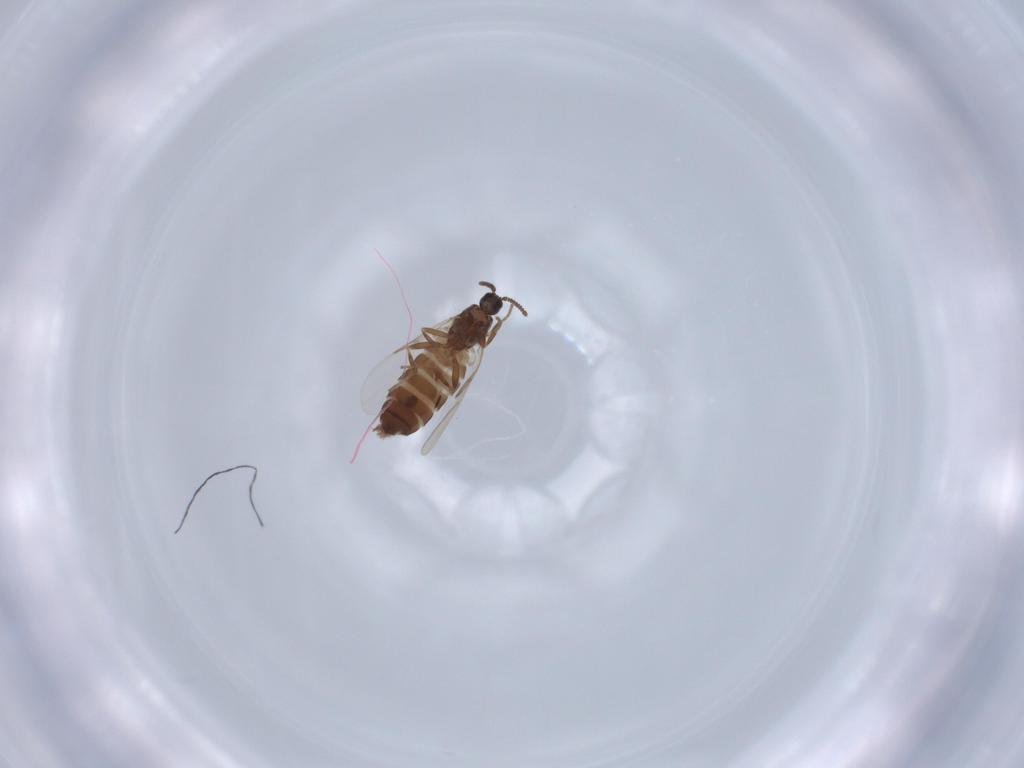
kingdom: Animalia
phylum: Arthropoda
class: Insecta
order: Diptera
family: Scatopsidae
